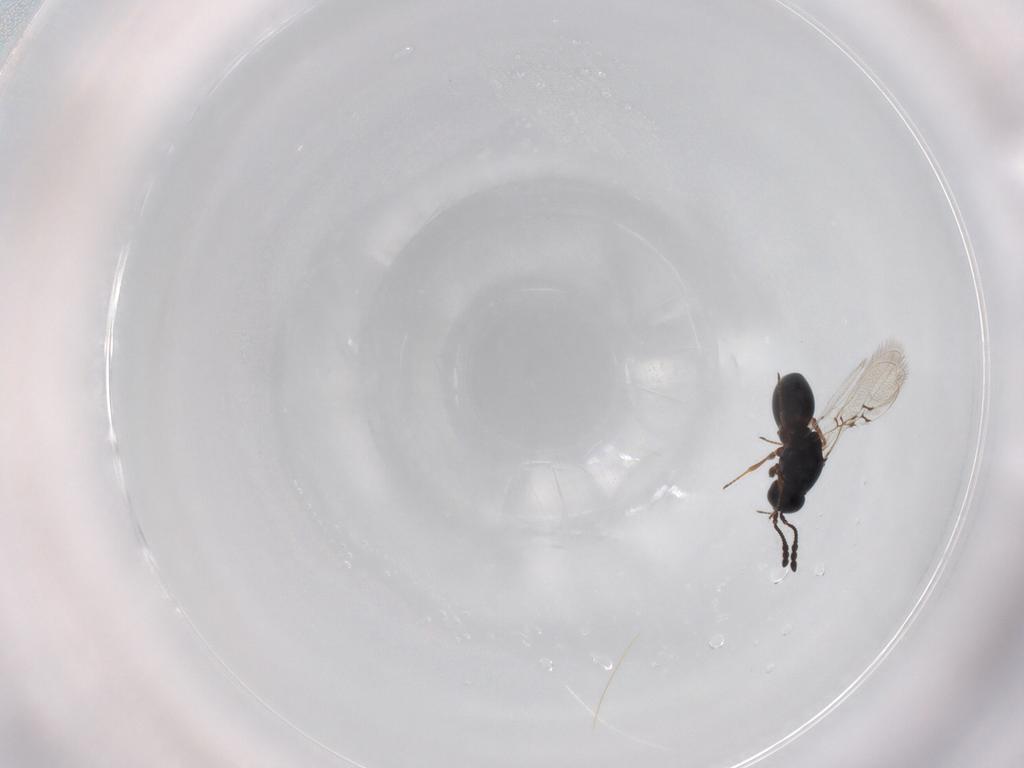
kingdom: Animalia
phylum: Arthropoda
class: Insecta
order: Hymenoptera
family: Figitidae
